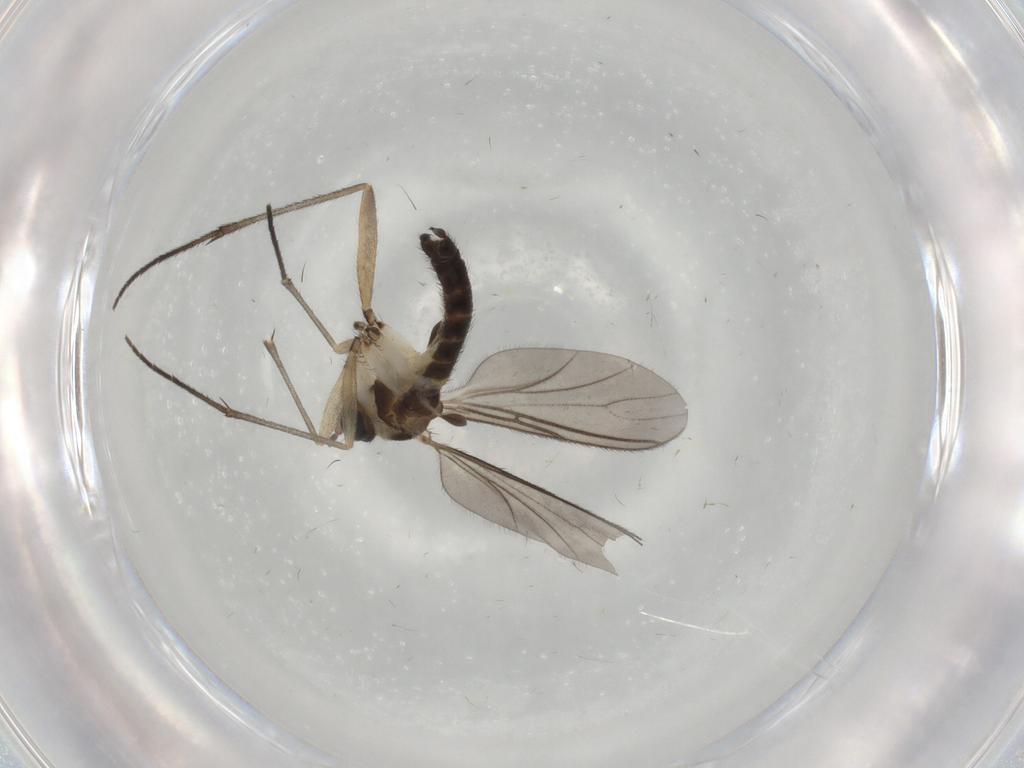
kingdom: Animalia
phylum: Arthropoda
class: Insecta
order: Diptera
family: Sciaridae
